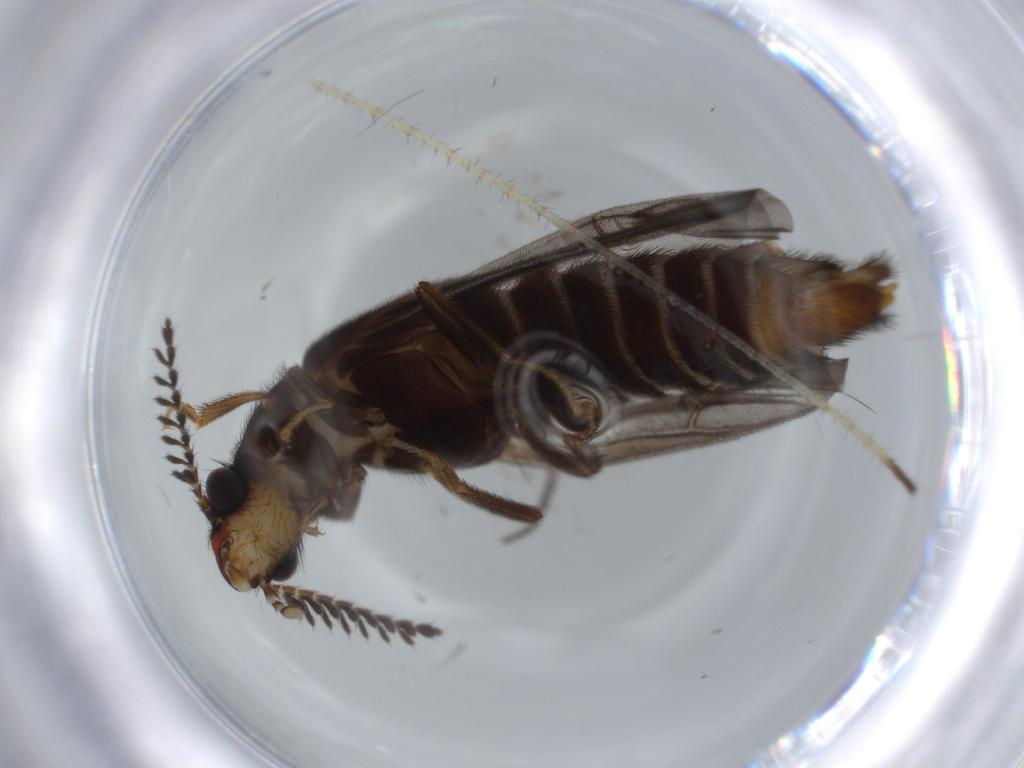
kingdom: Animalia
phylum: Arthropoda
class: Insecta
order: Coleoptera
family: Phengodidae
